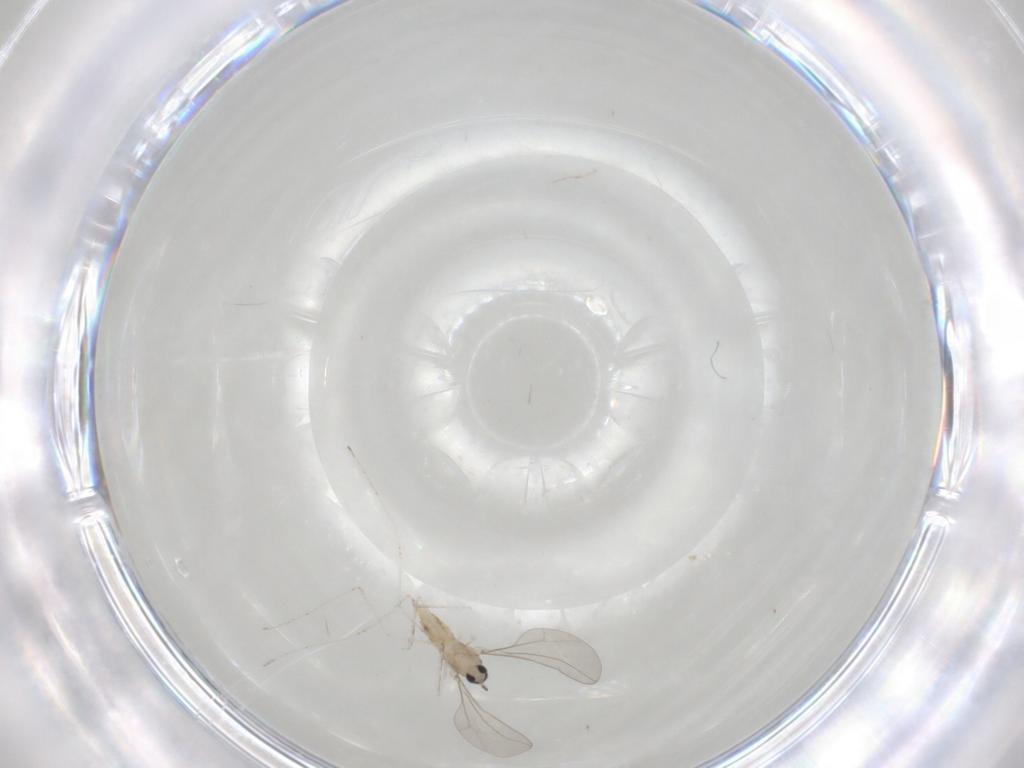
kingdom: Animalia
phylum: Arthropoda
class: Insecta
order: Diptera
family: Cecidomyiidae
